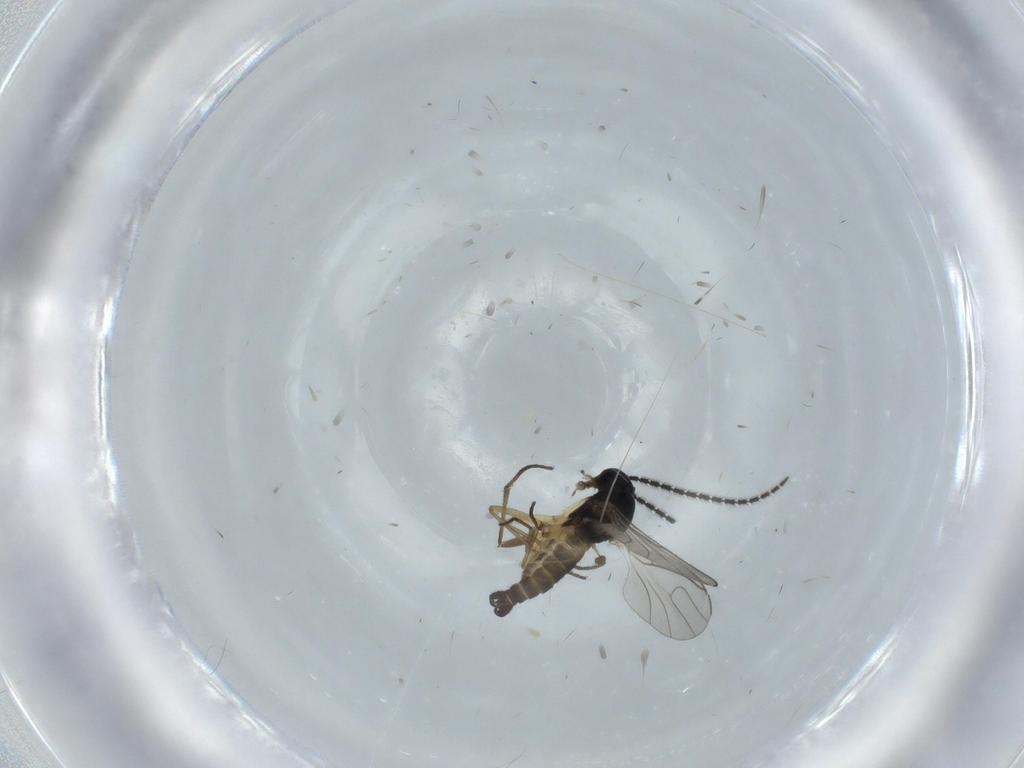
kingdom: Animalia
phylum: Arthropoda
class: Insecta
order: Diptera
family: Sciaridae
